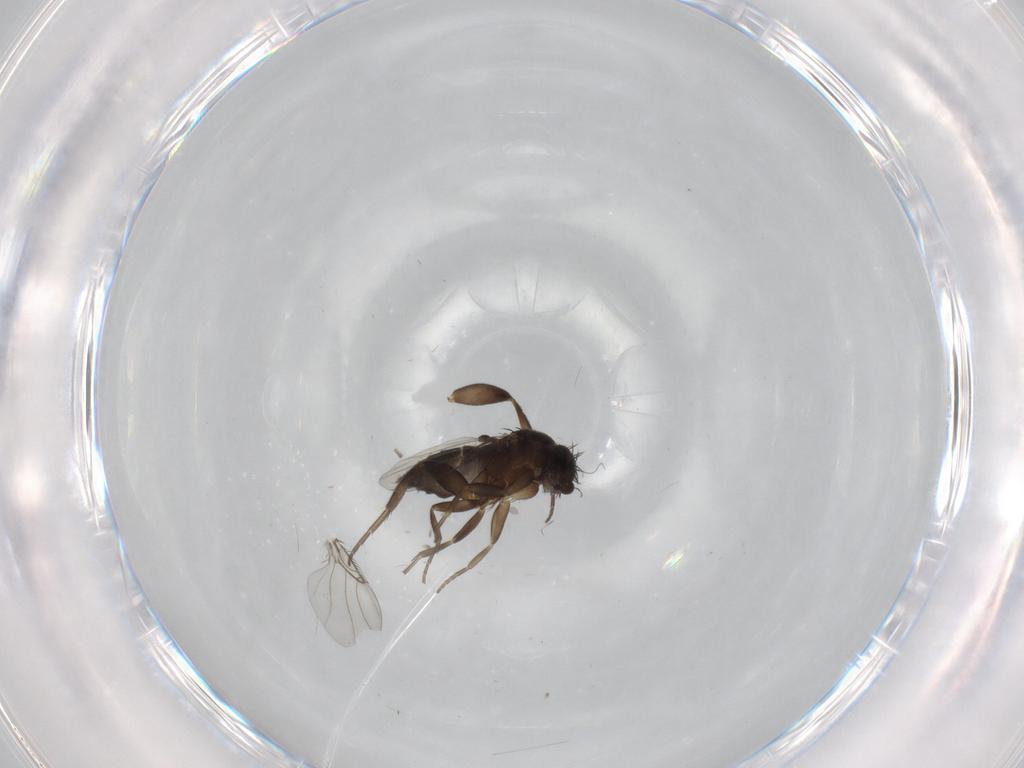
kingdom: Animalia
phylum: Arthropoda
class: Insecta
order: Diptera
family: Phoridae
